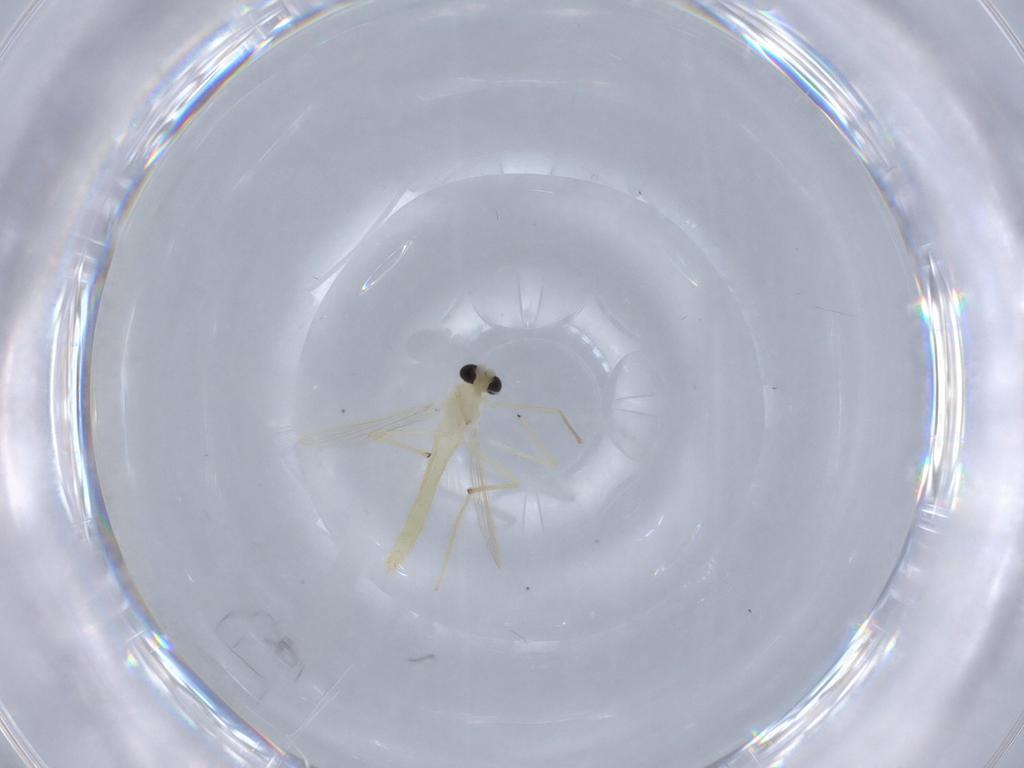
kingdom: Animalia
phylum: Arthropoda
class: Insecta
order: Diptera
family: Chironomidae
